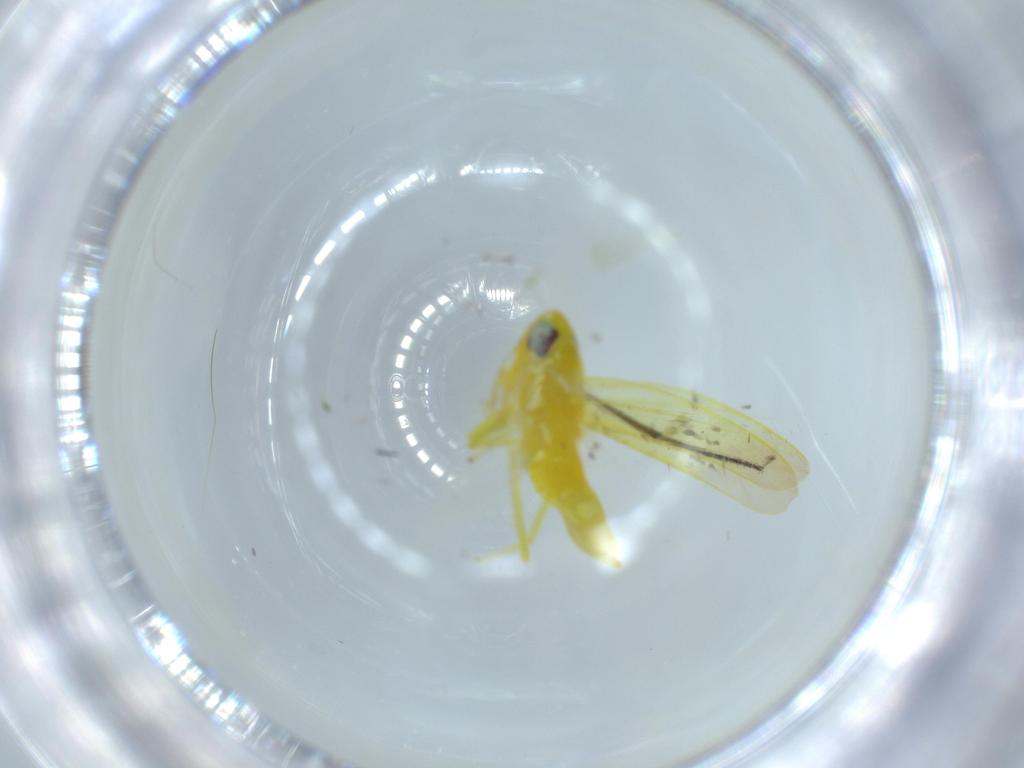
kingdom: Animalia
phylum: Arthropoda
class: Insecta
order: Hemiptera
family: Cicadellidae
